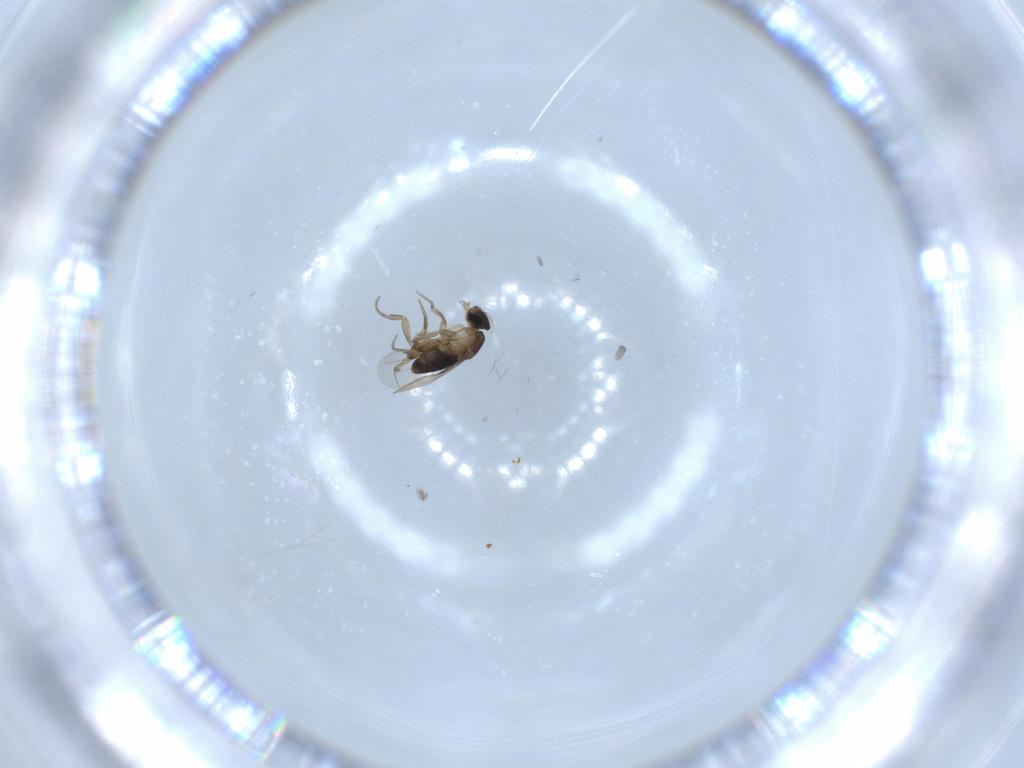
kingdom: Animalia
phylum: Arthropoda
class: Insecta
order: Diptera
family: Phoridae
